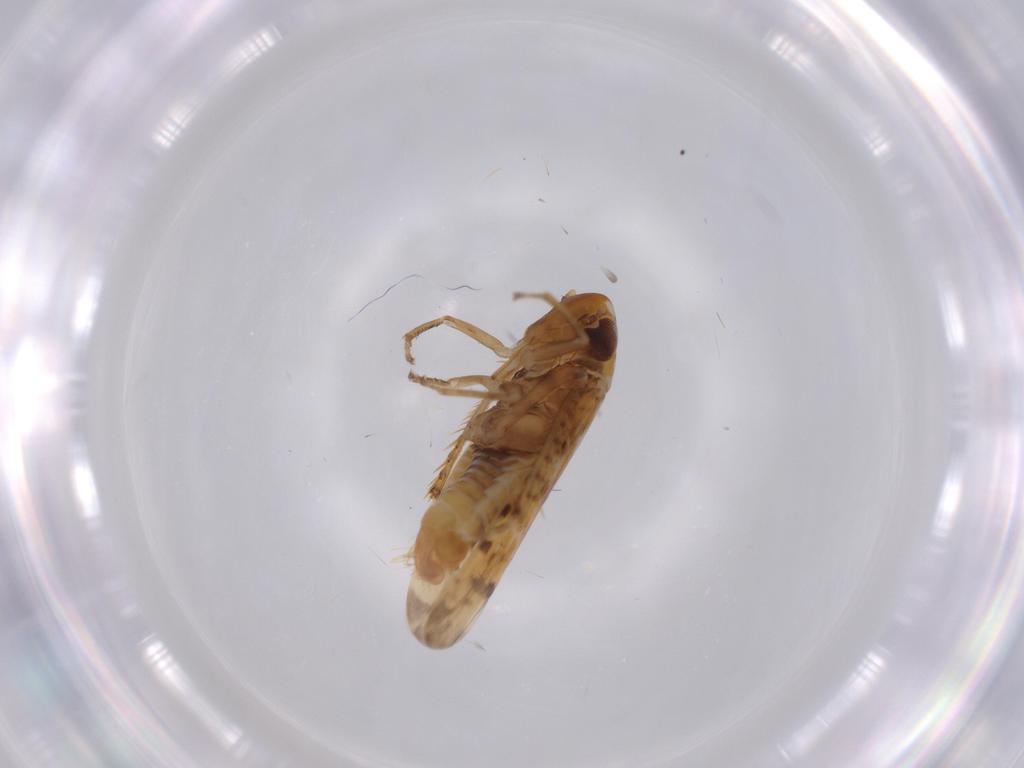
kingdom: Animalia
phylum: Arthropoda
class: Insecta
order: Hemiptera
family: Cicadellidae
